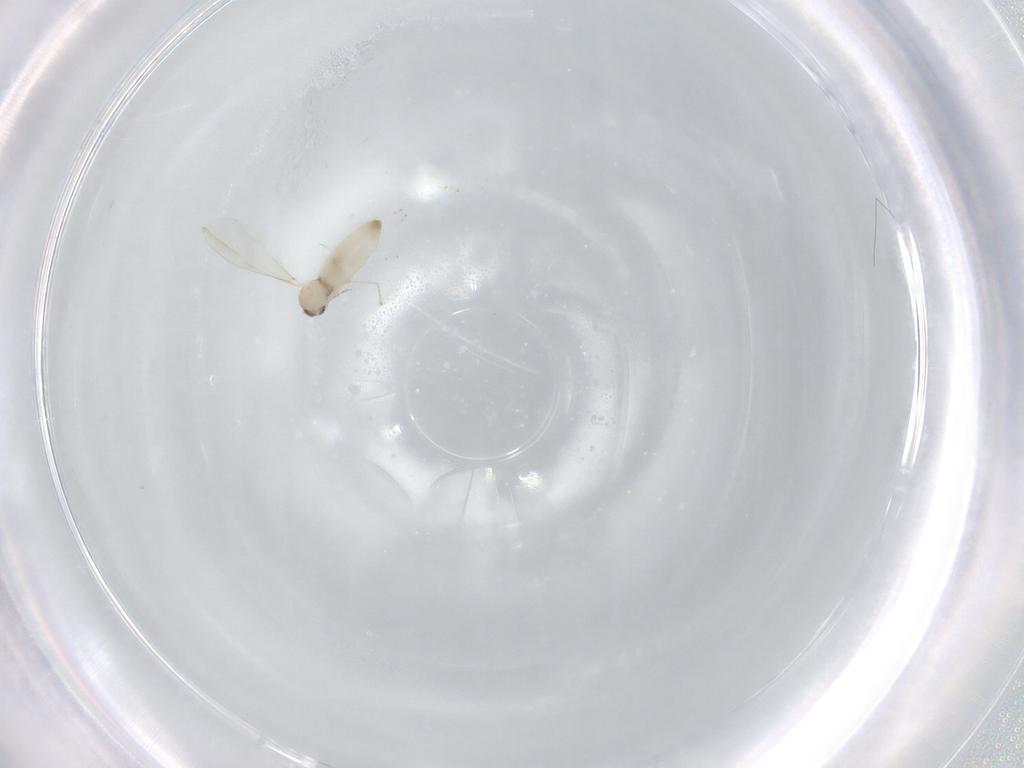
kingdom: Animalia
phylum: Arthropoda
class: Insecta
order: Diptera
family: Cecidomyiidae
